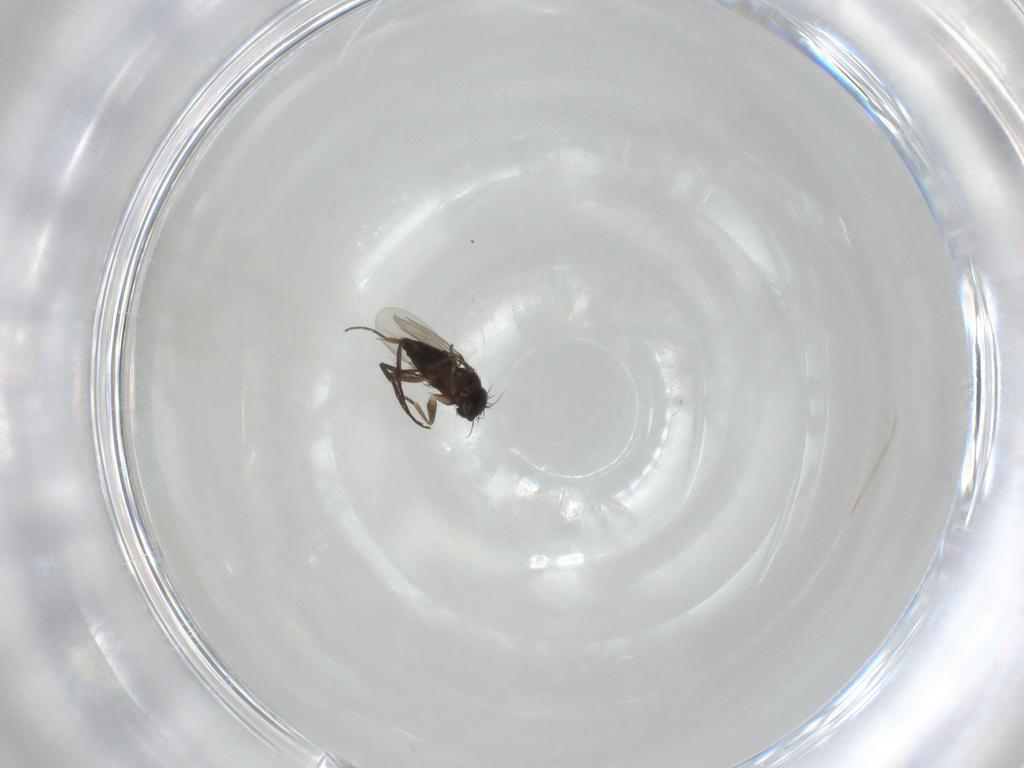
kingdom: Animalia
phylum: Arthropoda
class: Insecta
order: Diptera
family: Phoridae
